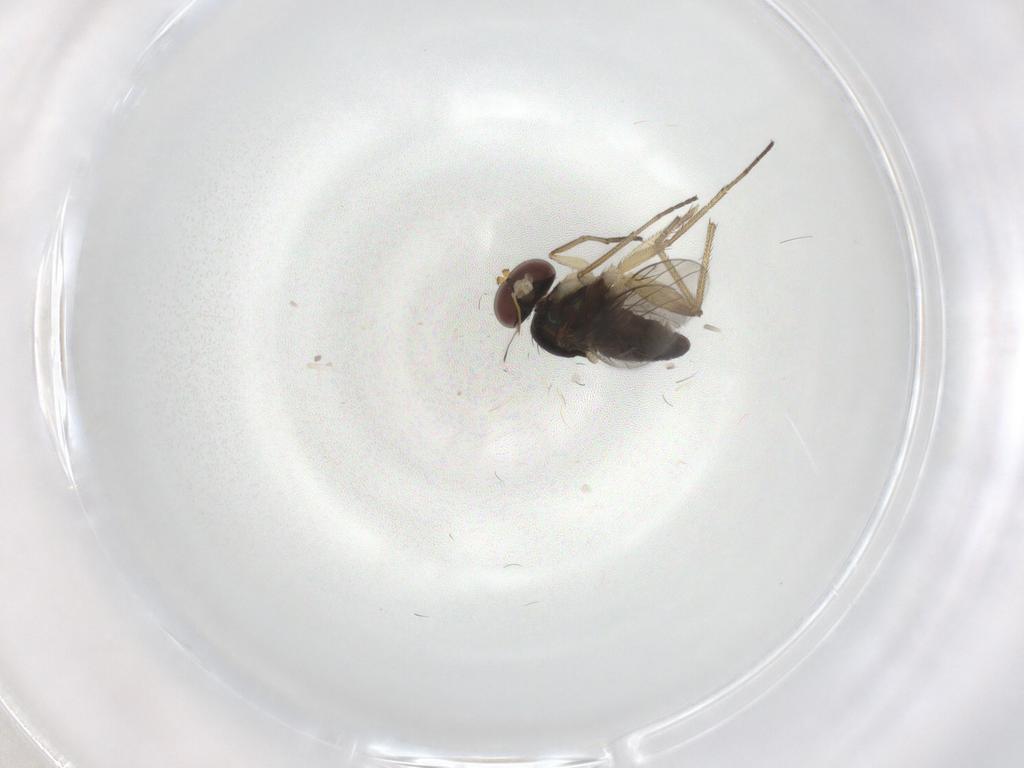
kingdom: Animalia
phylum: Arthropoda
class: Insecta
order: Diptera
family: Dolichopodidae
